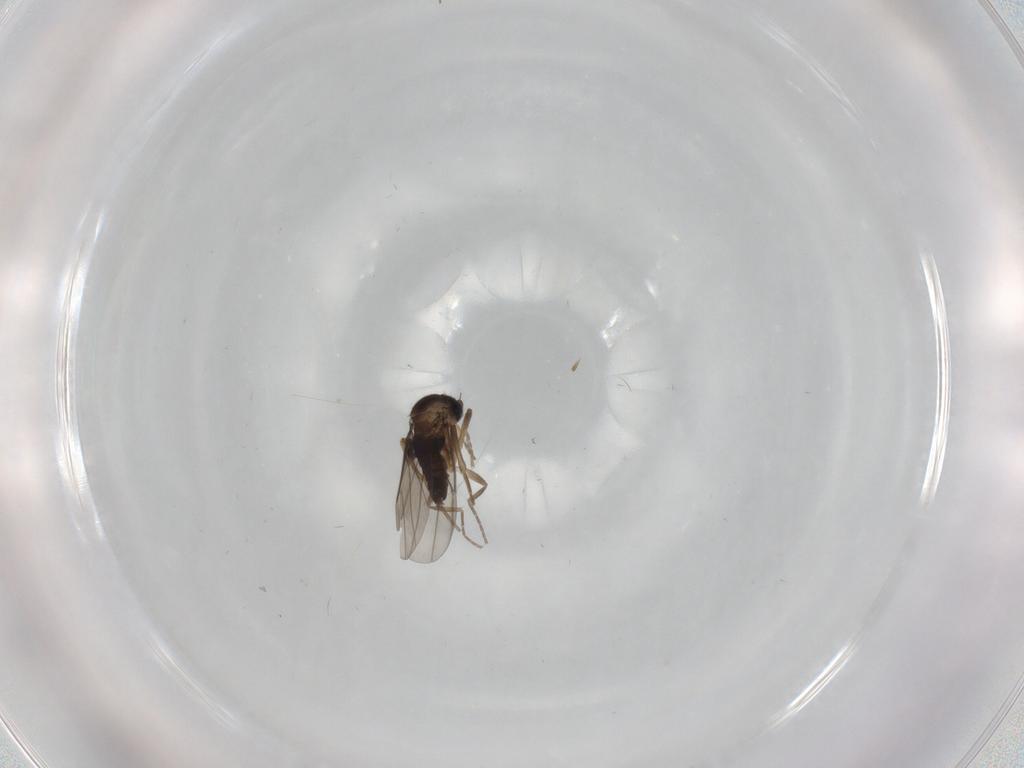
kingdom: Animalia
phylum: Arthropoda
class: Insecta
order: Diptera
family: Phoridae
